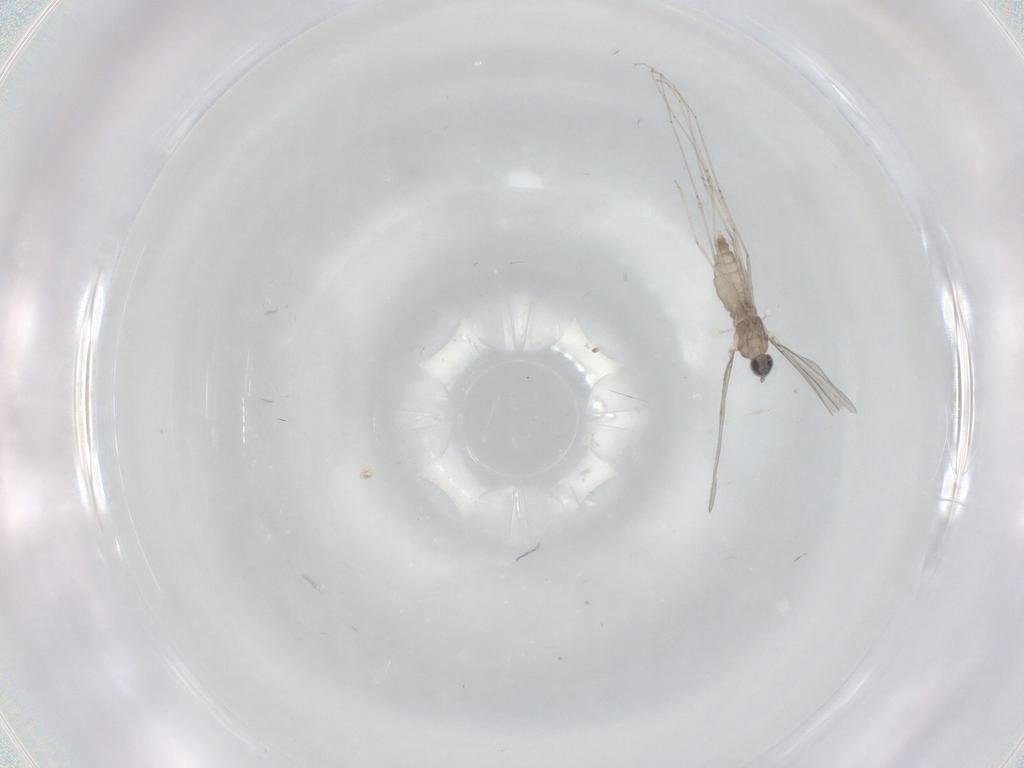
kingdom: Animalia
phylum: Arthropoda
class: Insecta
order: Diptera
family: Cecidomyiidae
